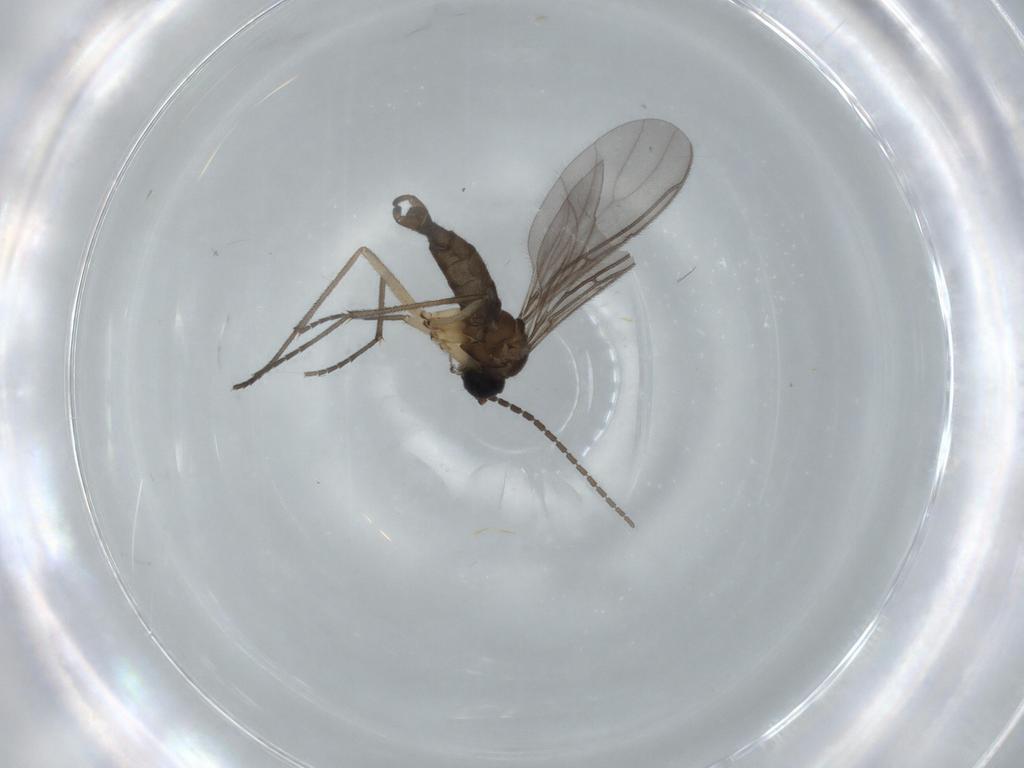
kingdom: Animalia
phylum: Arthropoda
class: Insecta
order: Diptera
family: Sciaridae
